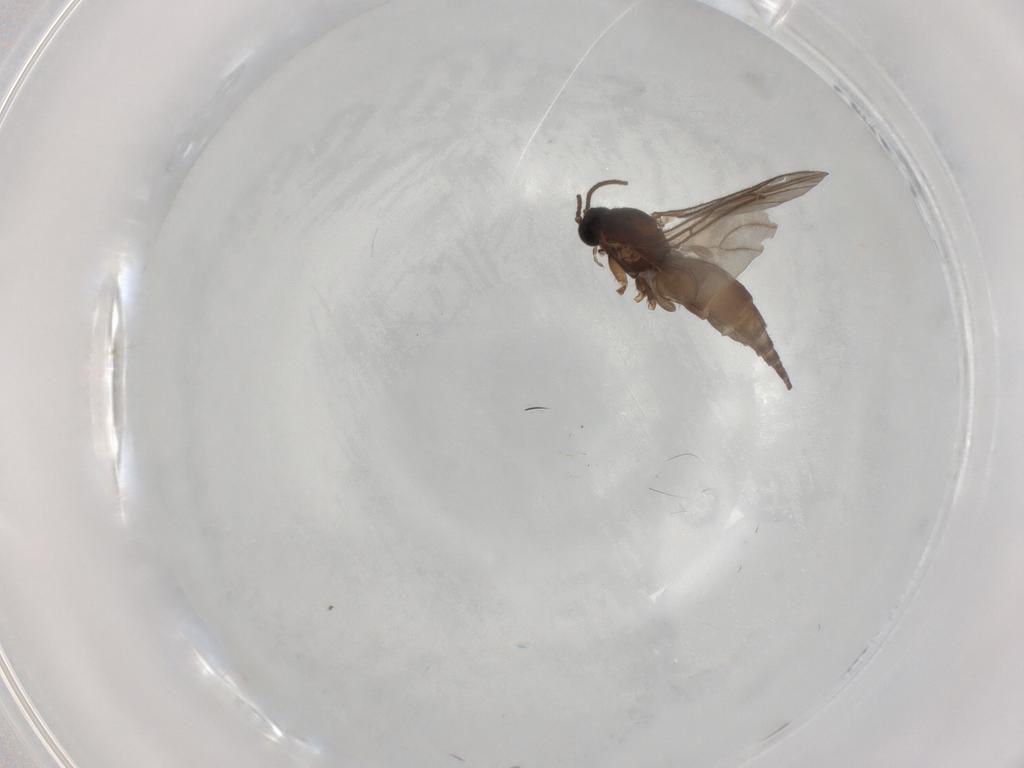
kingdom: Animalia
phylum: Arthropoda
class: Insecta
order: Diptera
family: Sciaridae
